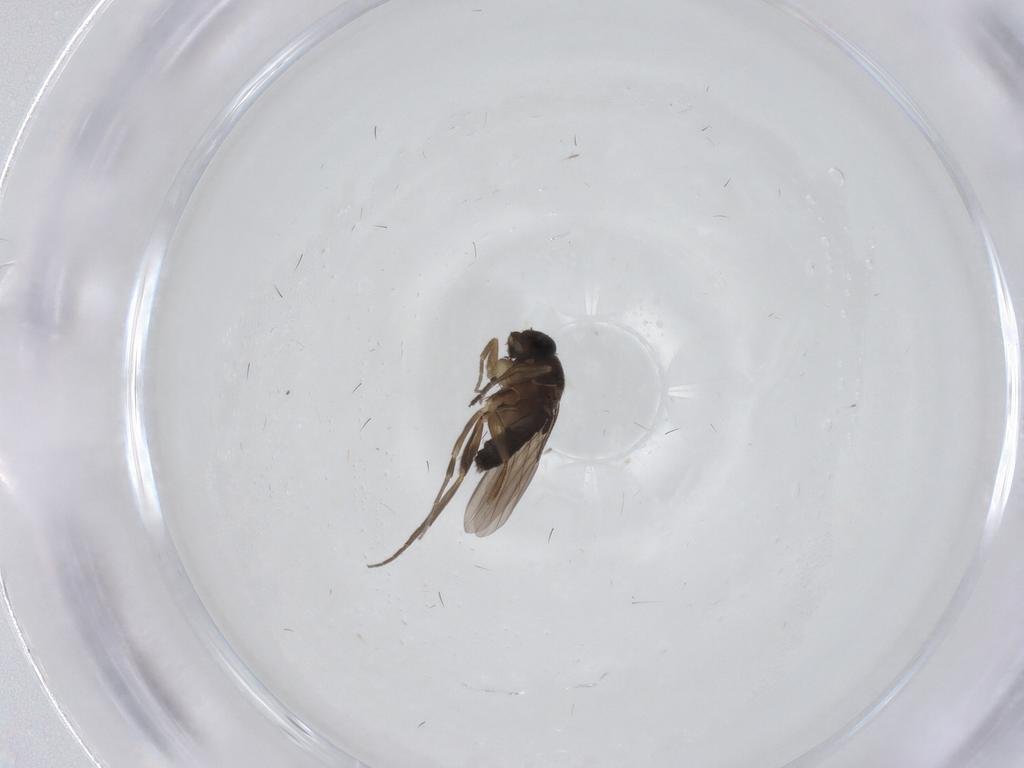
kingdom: Animalia
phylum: Arthropoda
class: Insecta
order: Diptera
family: Phoridae
